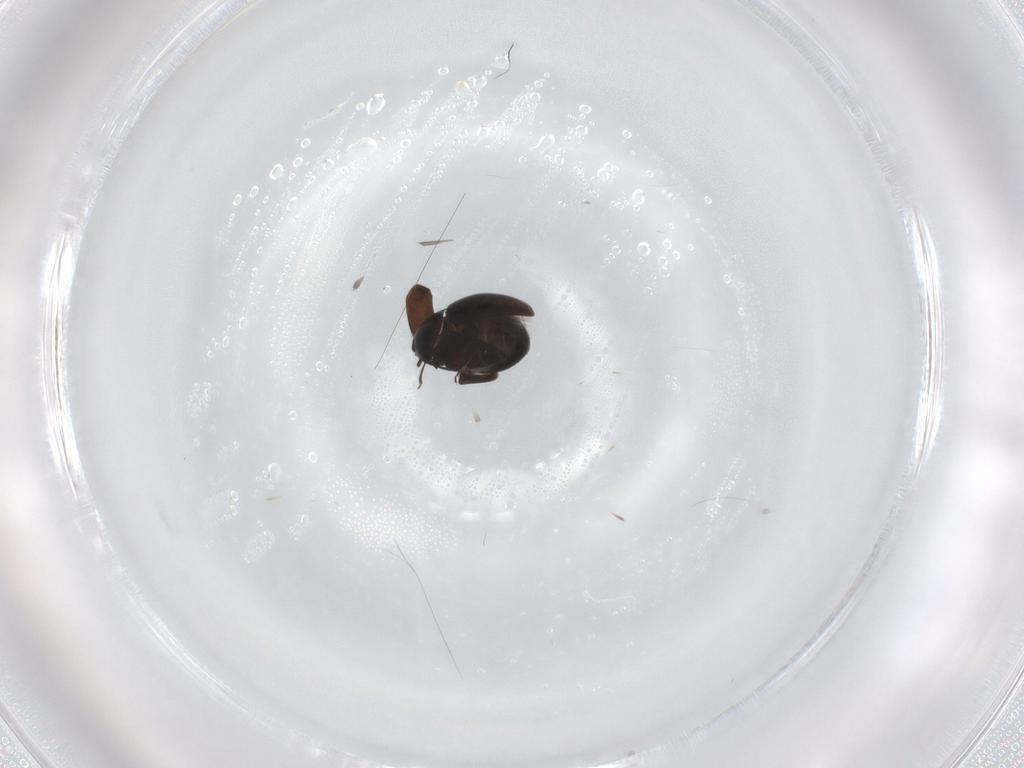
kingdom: Animalia
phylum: Arthropoda
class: Insecta
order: Coleoptera
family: Corylophidae
